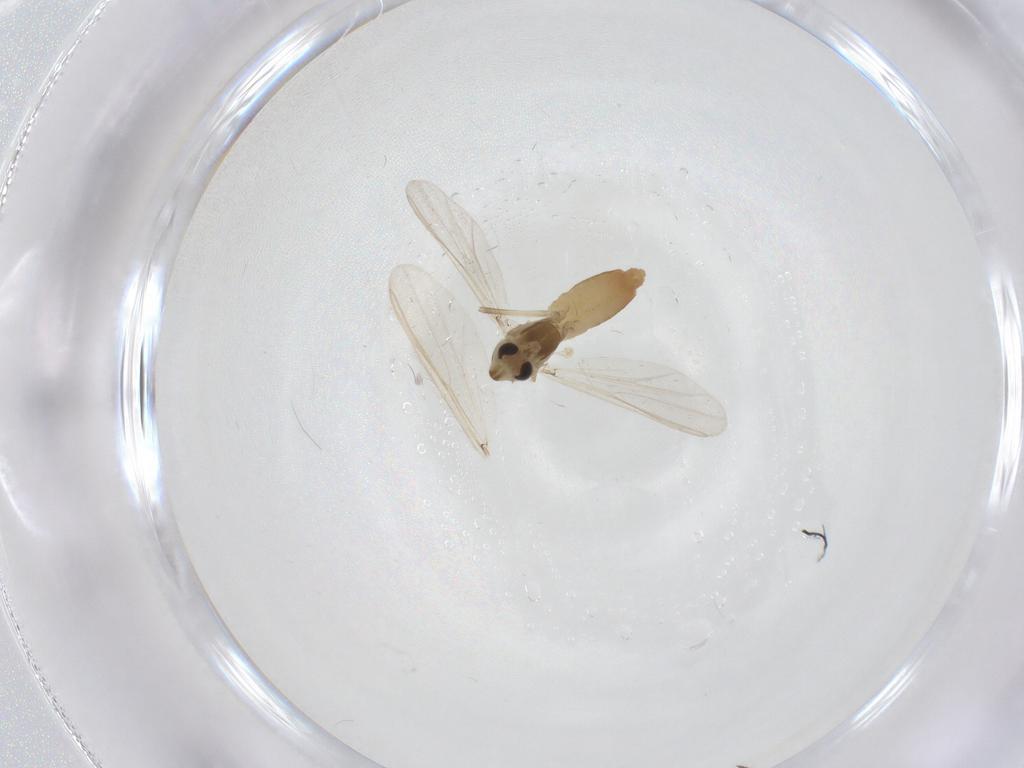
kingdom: Animalia
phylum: Arthropoda
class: Insecta
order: Diptera
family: Chironomidae
